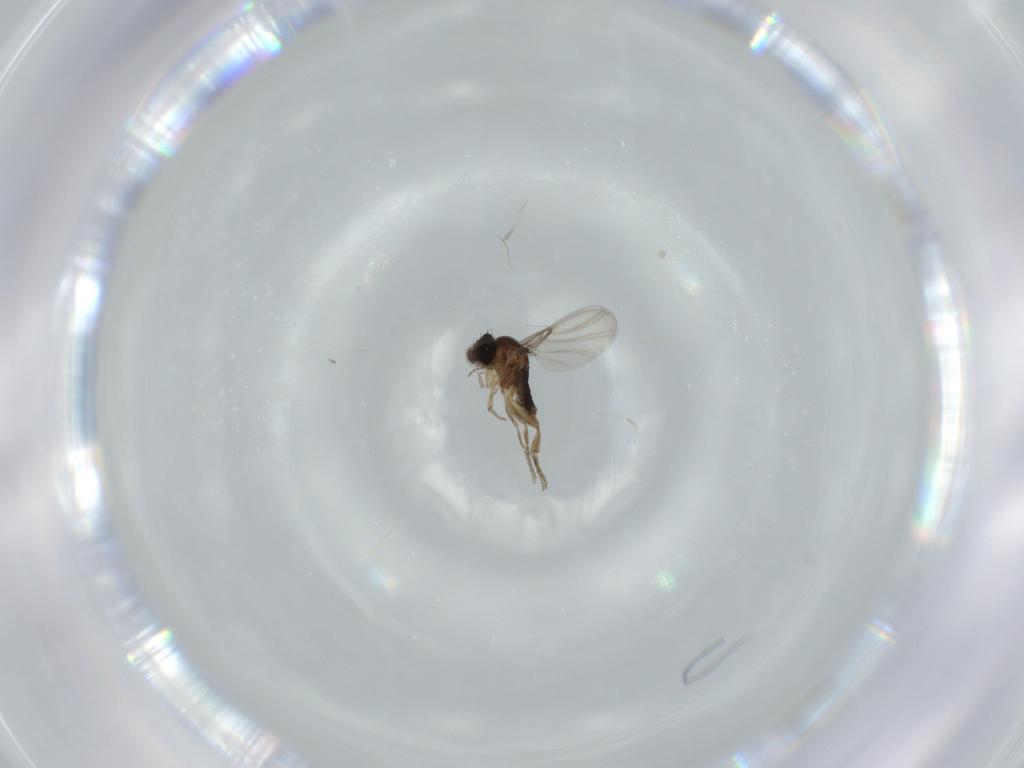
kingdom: Animalia
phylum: Arthropoda
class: Insecta
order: Diptera
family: Phoridae
